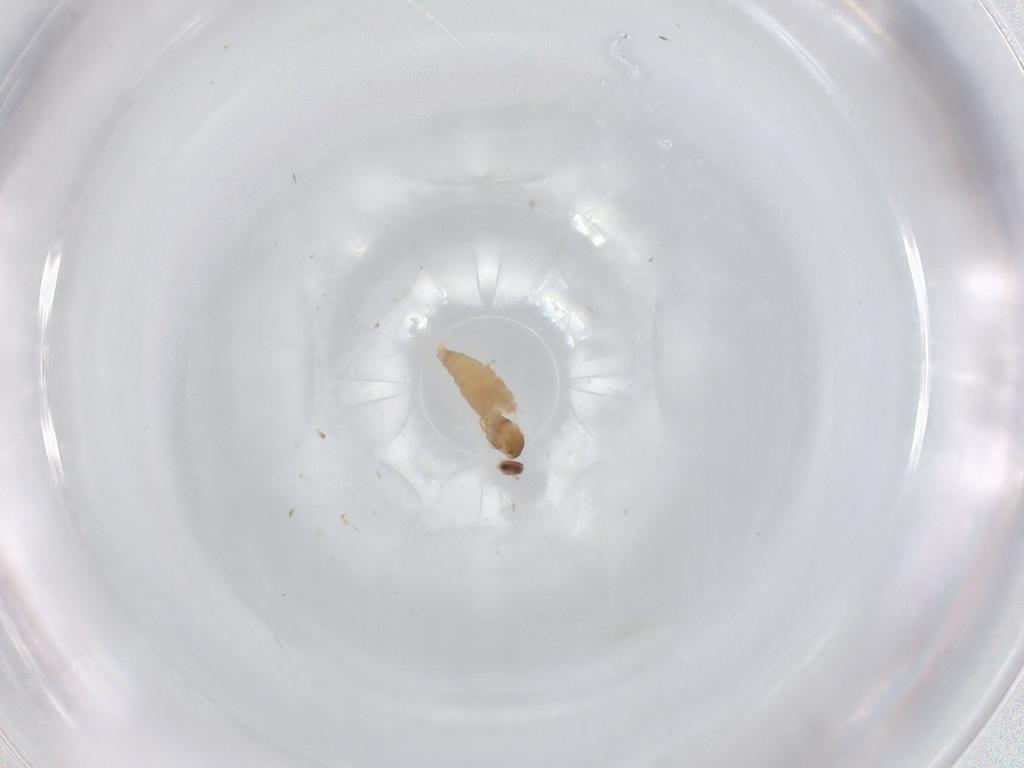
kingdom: Animalia
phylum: Arthropoda
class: Insecta
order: Diptera
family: Cecidomyiidae
